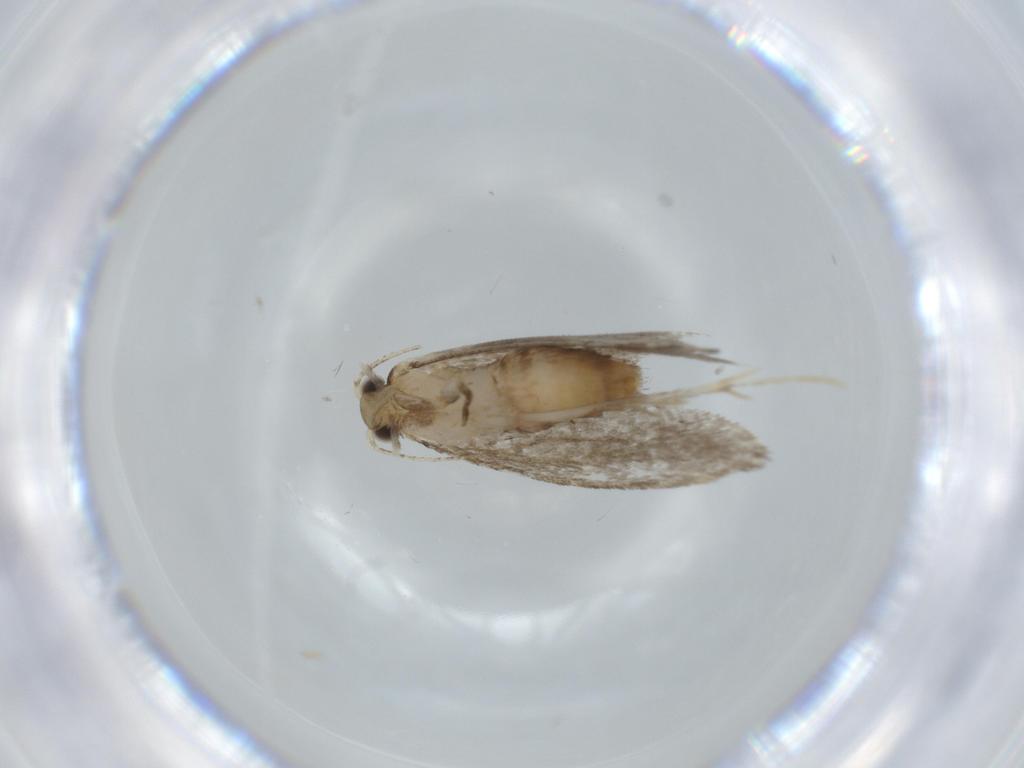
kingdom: Animalia
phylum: Arthropoda
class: Insecta
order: Lepidoptera
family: Tineidae
